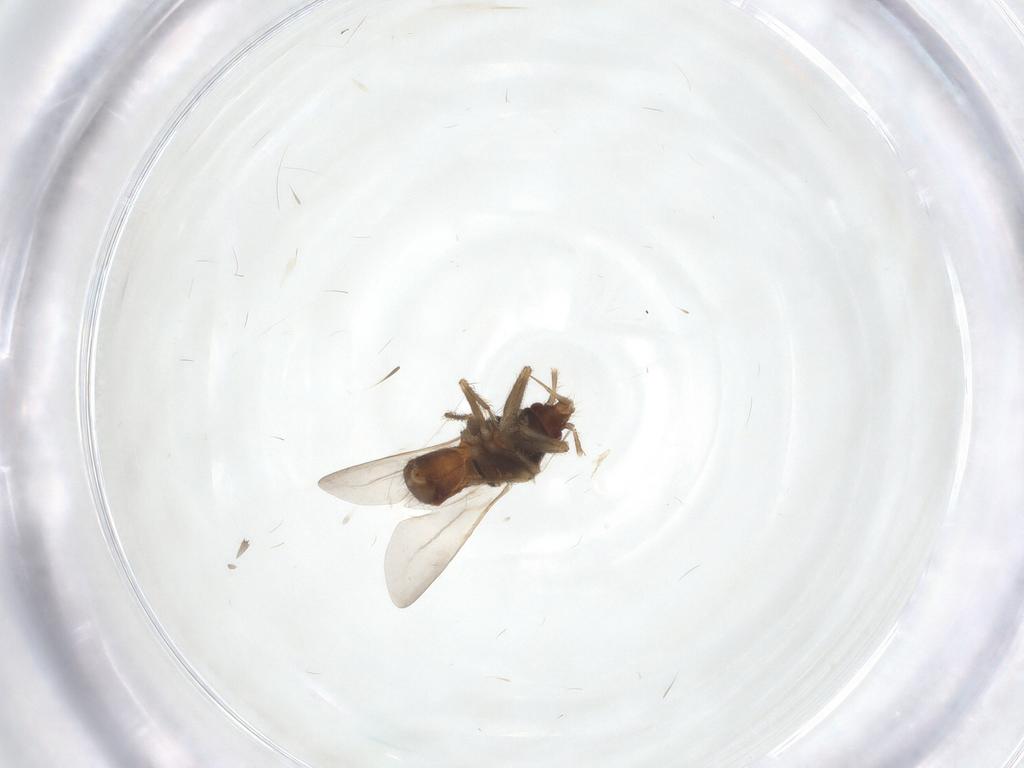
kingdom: Animalia
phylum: Arthropoda
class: Insecta
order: Hemiptera
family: Ceratocombidae
